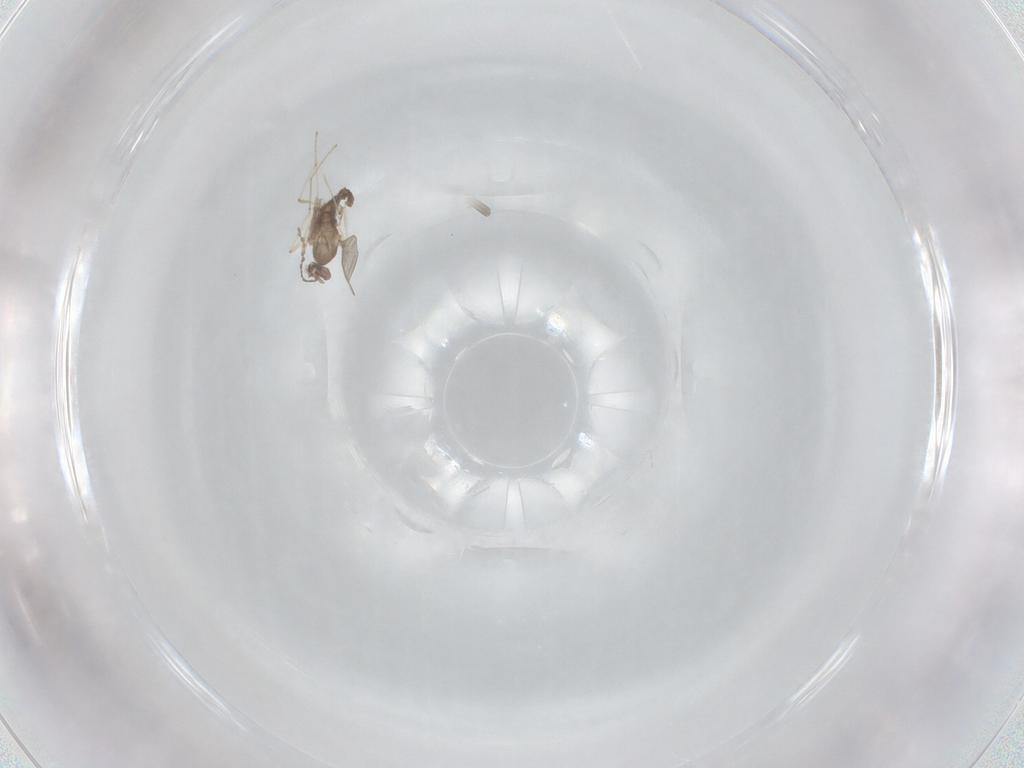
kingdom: Animalia
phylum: Arthropoda
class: Insecta
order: Diptera
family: Cecidomyiidae
